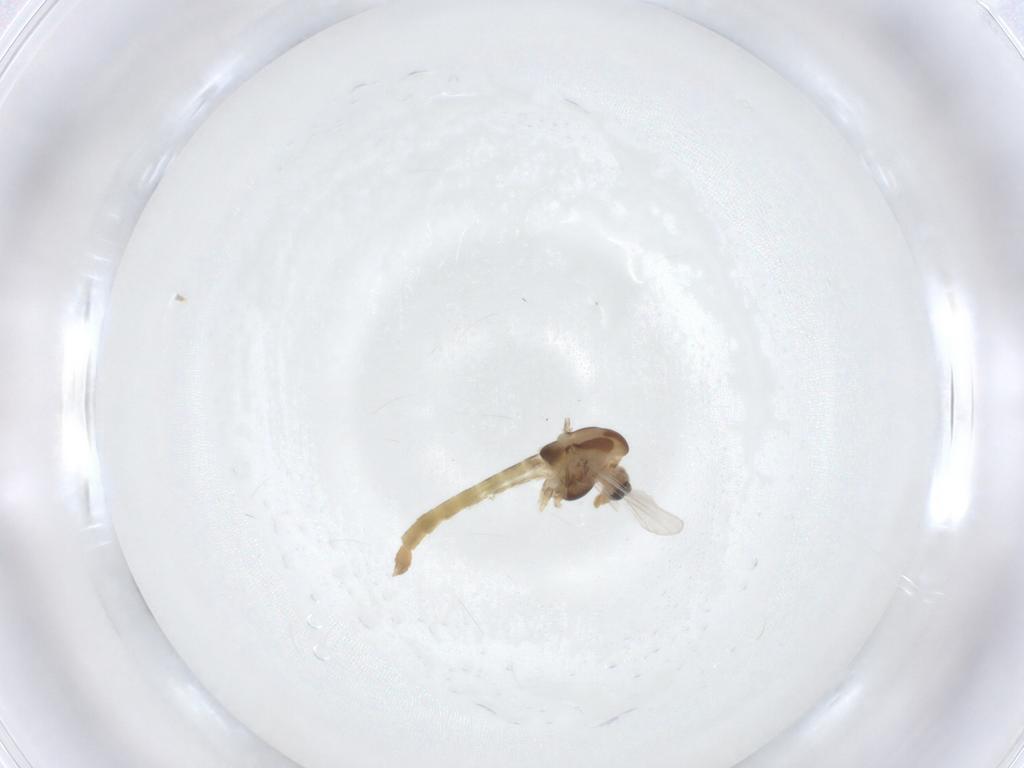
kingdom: Animalia
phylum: Arthropoda
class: Insecta
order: Diptera
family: Chironomidae
